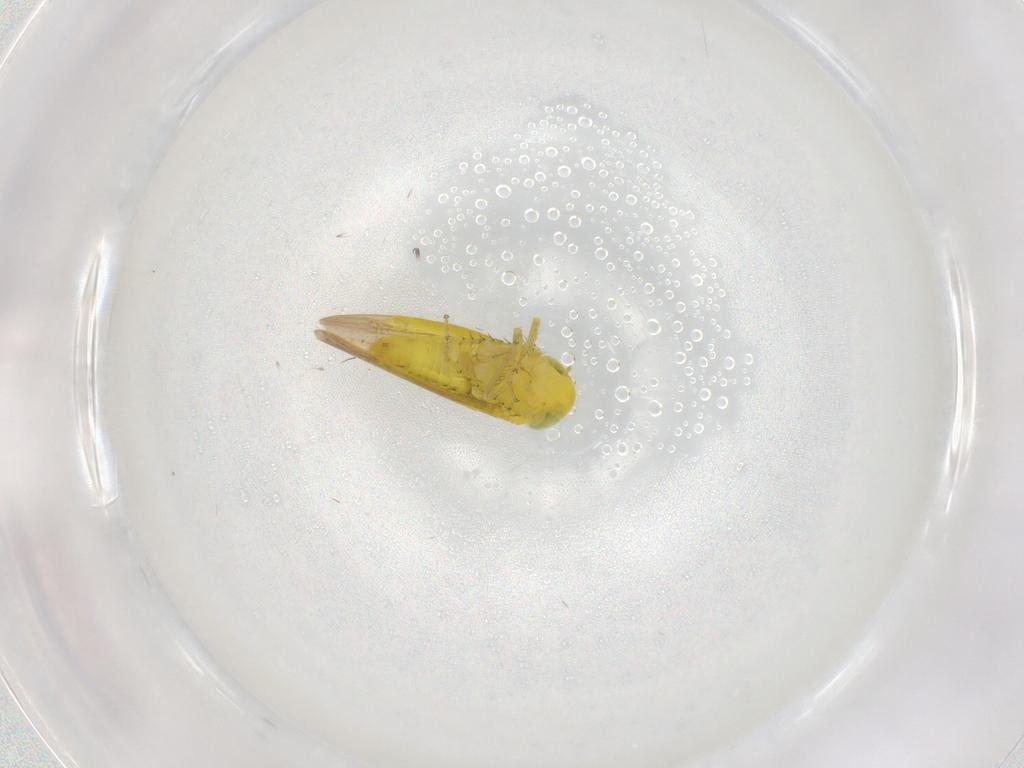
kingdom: Animalia
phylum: Arthropoda
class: Insecta
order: Hemiptera
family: Cicadellidae
